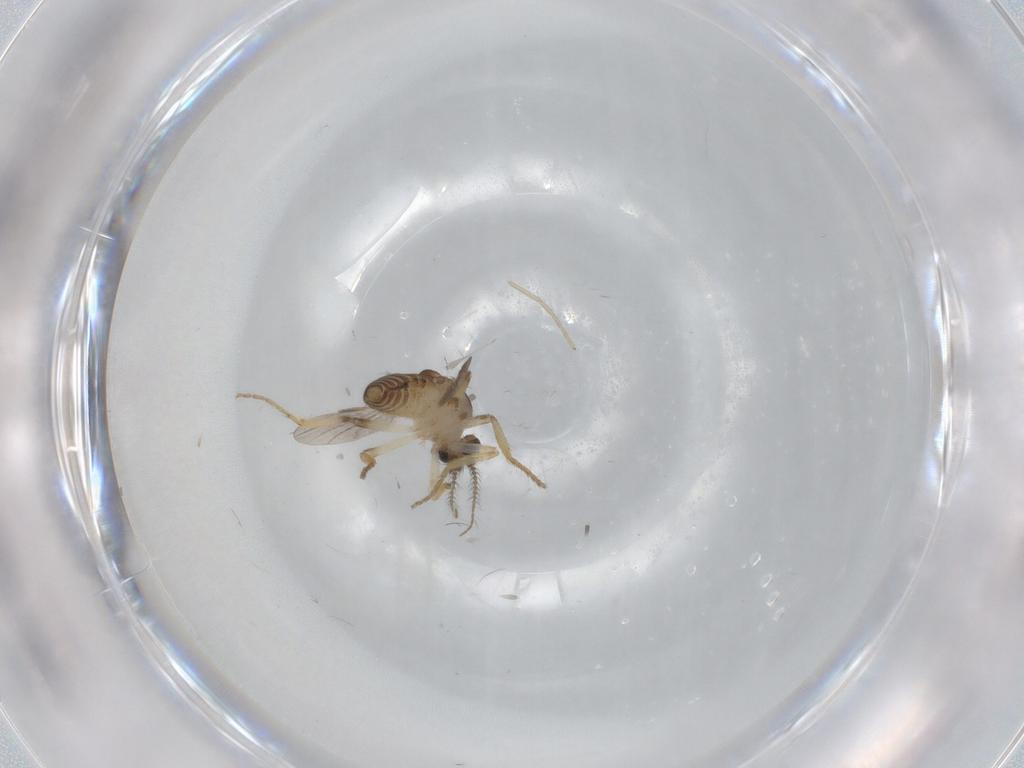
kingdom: Animalia
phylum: Arthropoda
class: Insecta
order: Diptera
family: Ceratopogonidae
